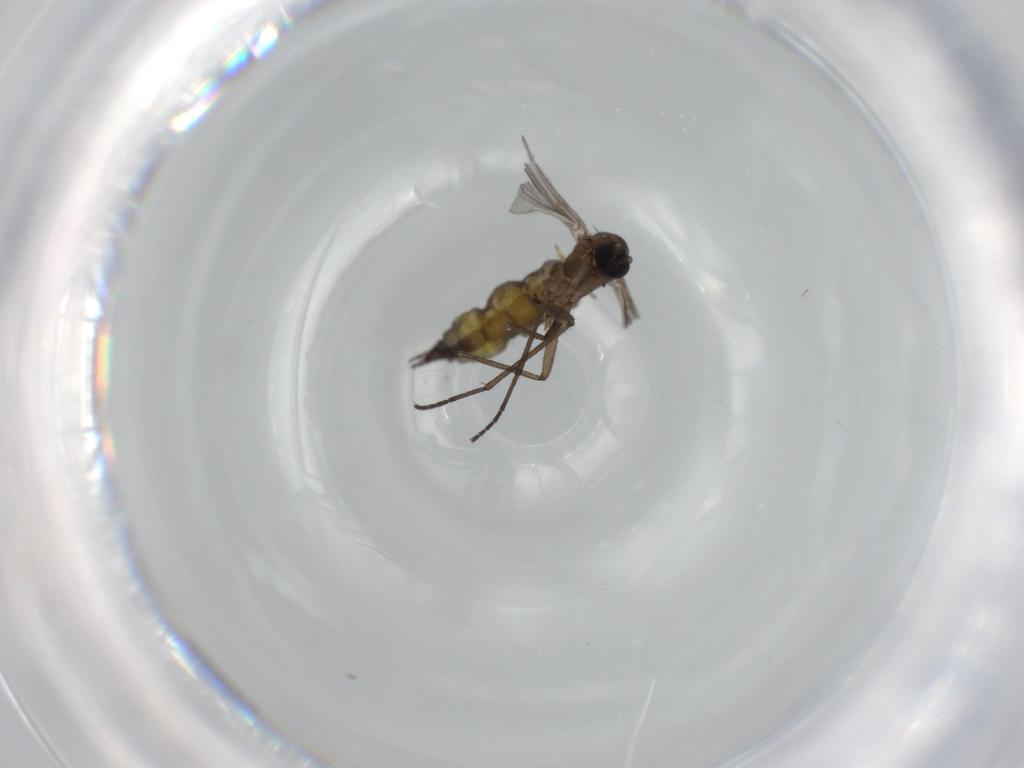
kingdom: Animalia
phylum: Arthropoda
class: Insecta
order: Diptera
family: Sciaridae
